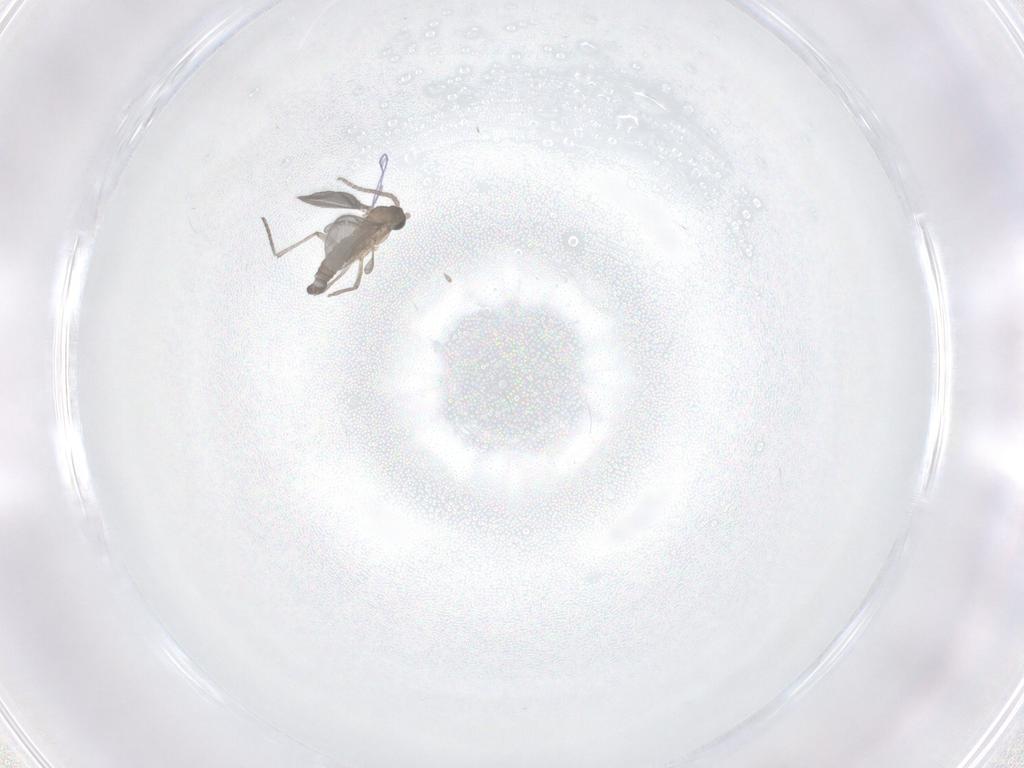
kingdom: Animalia
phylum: Arthropoda
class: Insecta
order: Diptera
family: Sciaridae
